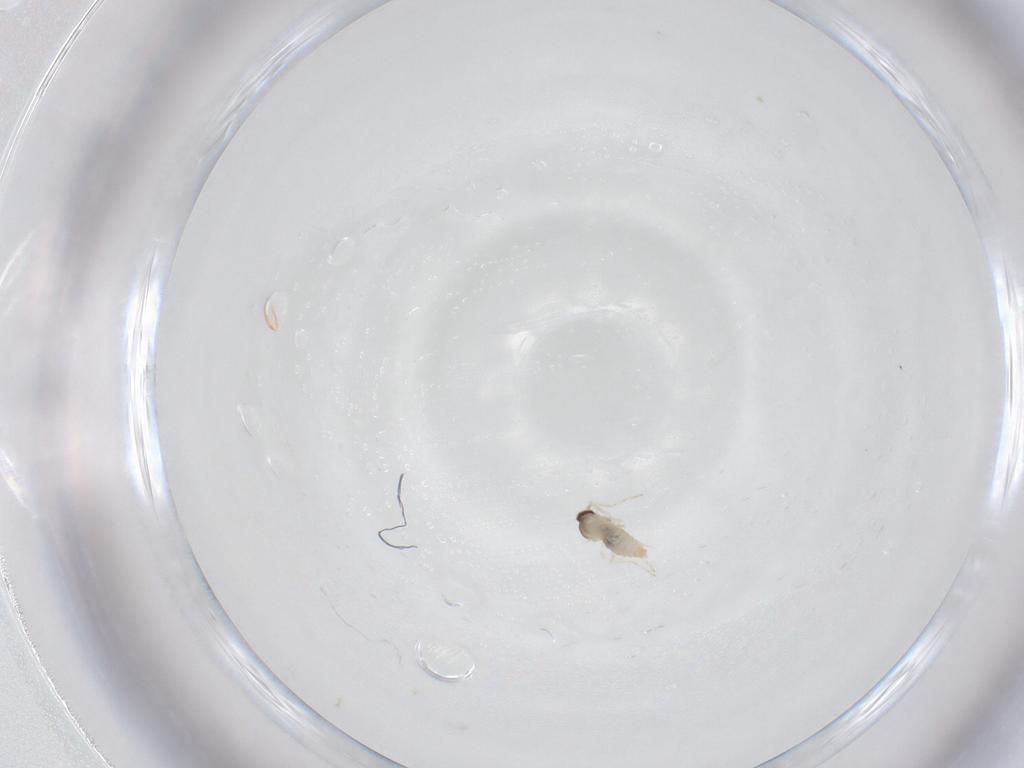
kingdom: Animalia
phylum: Arthropoda
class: Insecta
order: Diptera
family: Cecidomyiidae
